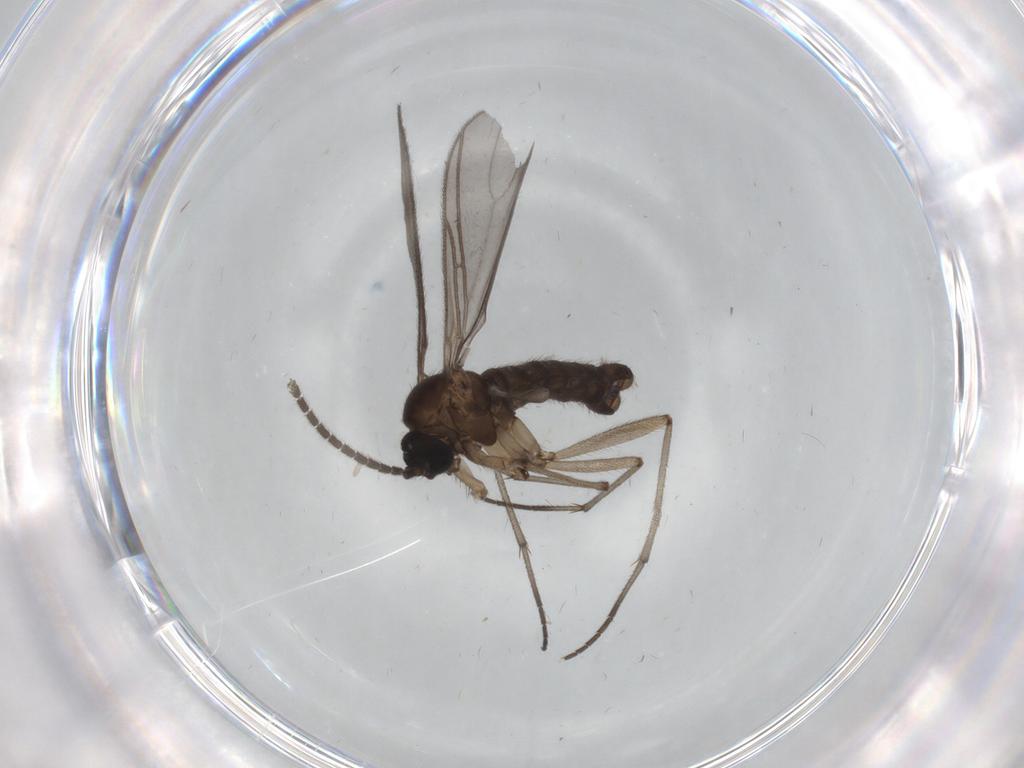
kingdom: Animalia
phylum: Arthropoda
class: Insecta
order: Diptera
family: Sciaridae
